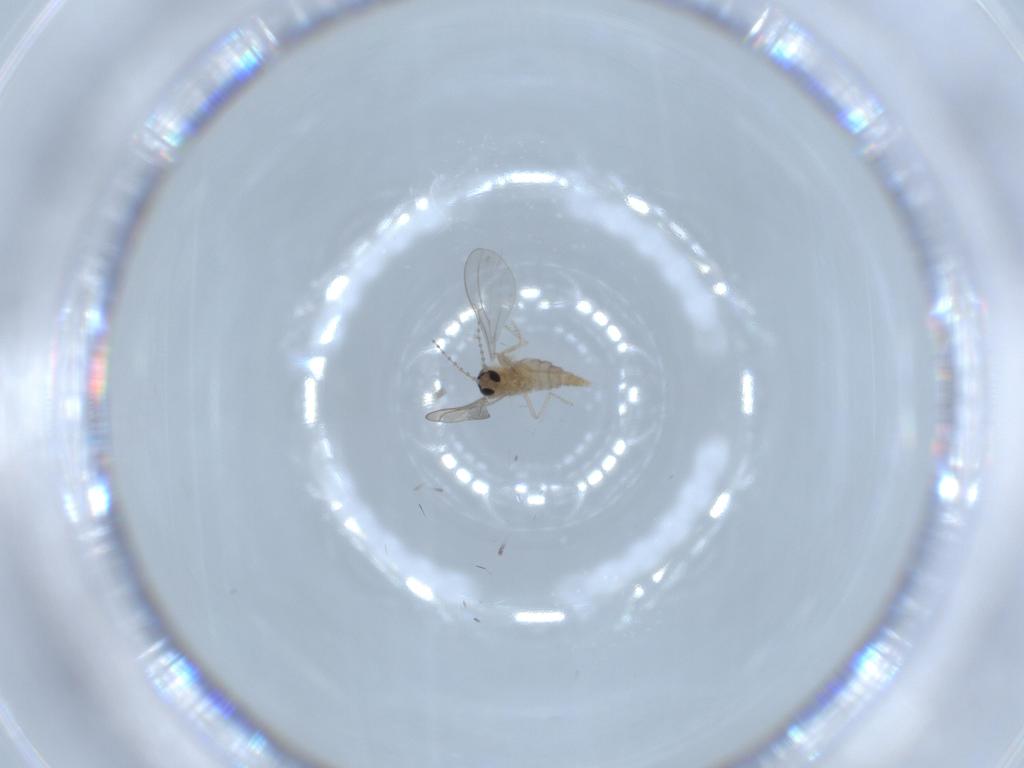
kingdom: Animalia
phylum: Arthropoda
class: Insecta
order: Diptera
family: Cecidomyiidae
